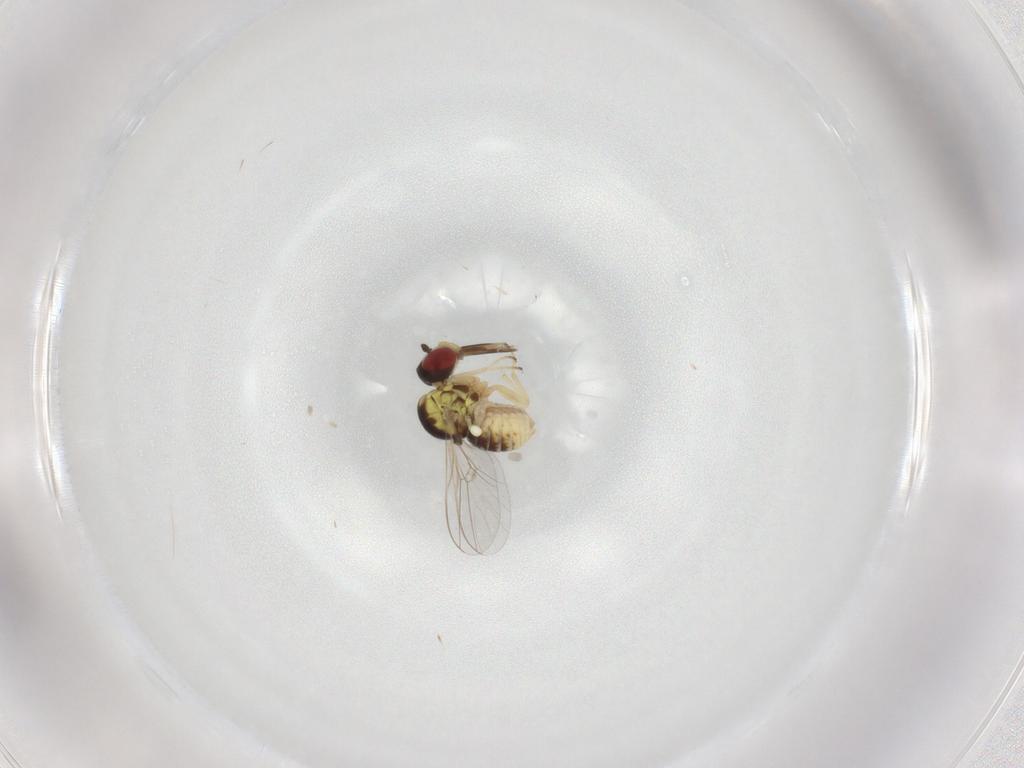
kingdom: Animalia
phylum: Arthropoda
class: Insecta
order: Diptera
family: Bombyliidae
